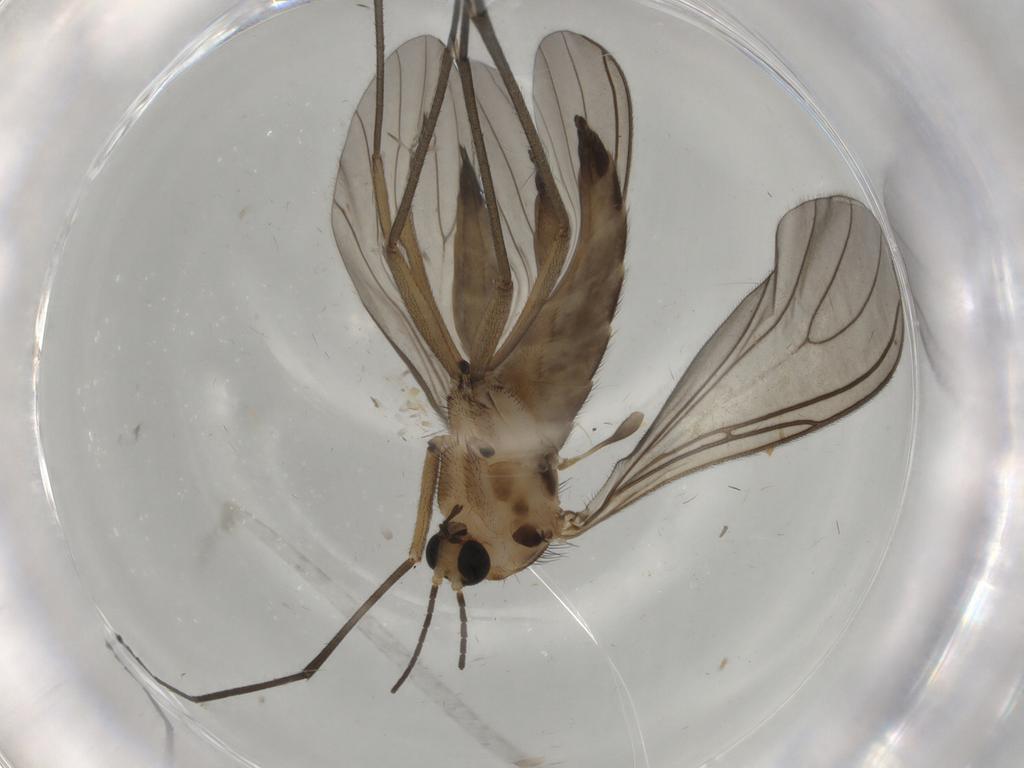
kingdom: Animalia
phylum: Arthropoda
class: Insecta
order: Diptera
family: Sciaridae
